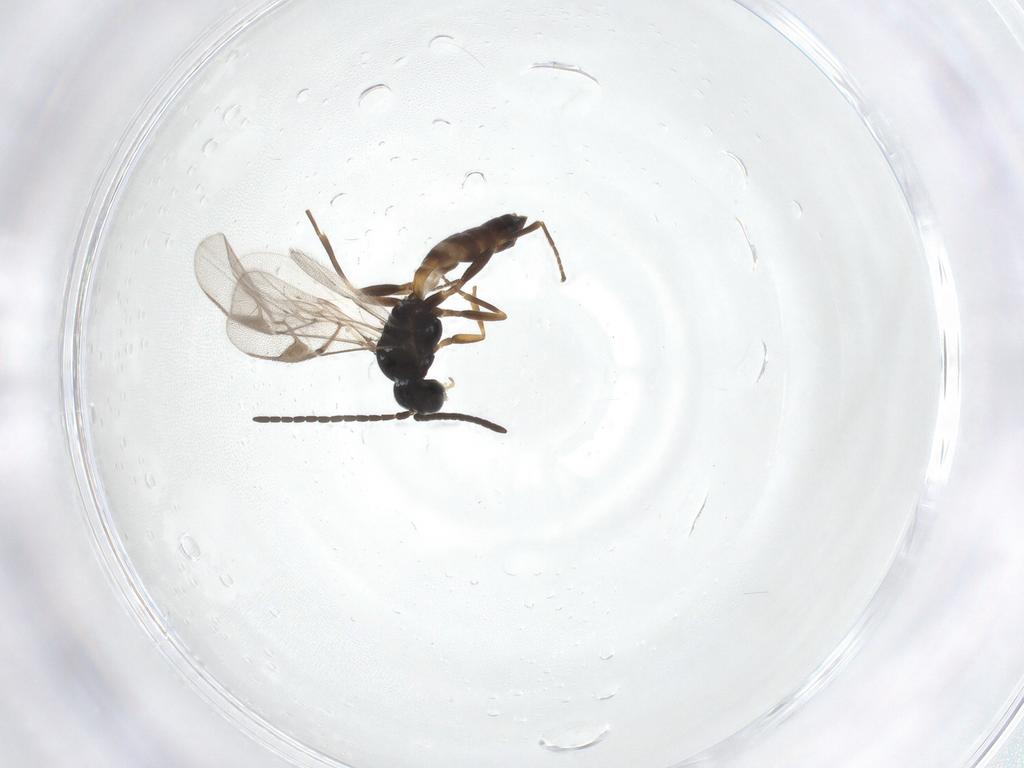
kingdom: Animalia
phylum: Arthropoda
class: Insecta
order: Hymenoptera
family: Braconidae
